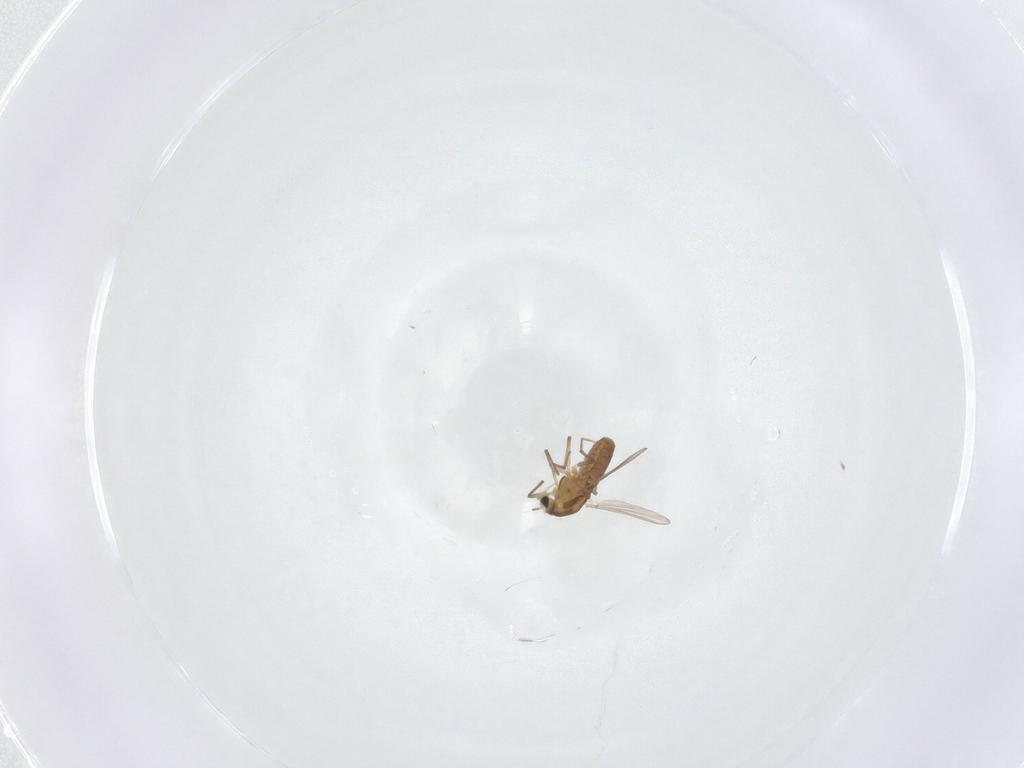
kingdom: Animalia
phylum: Arthropoda
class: Insecta
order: Diptera
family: Chironomidae
